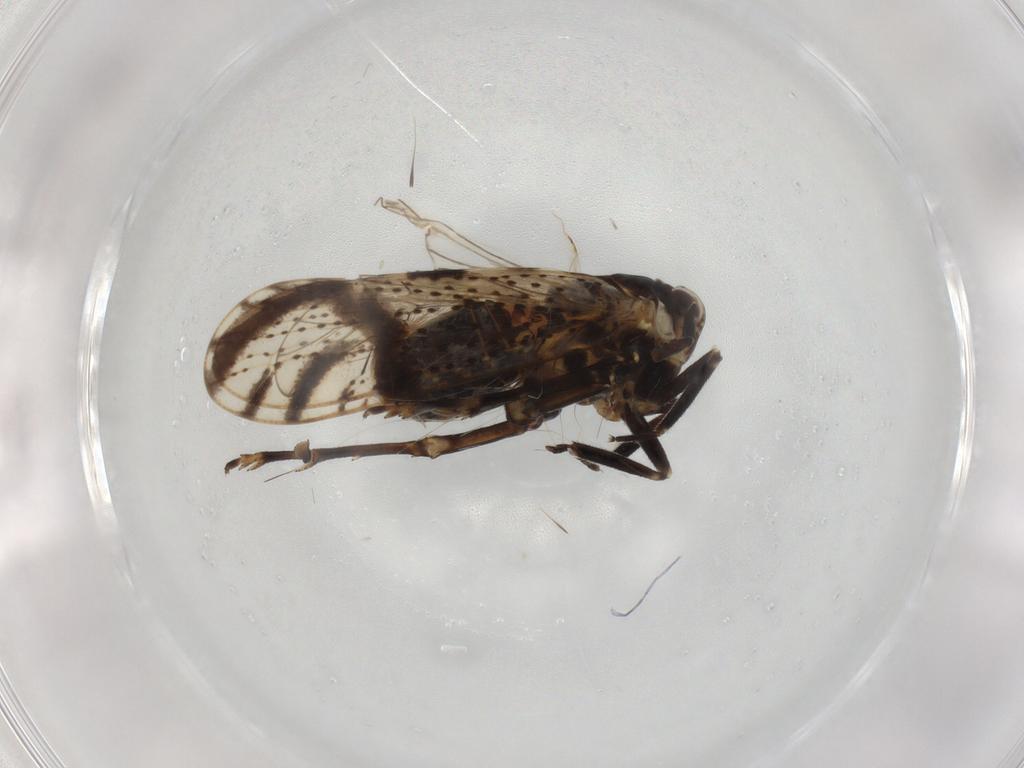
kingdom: Animalia
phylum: Arthropoda
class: Insecta
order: Hemiptera
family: Delphacidae
